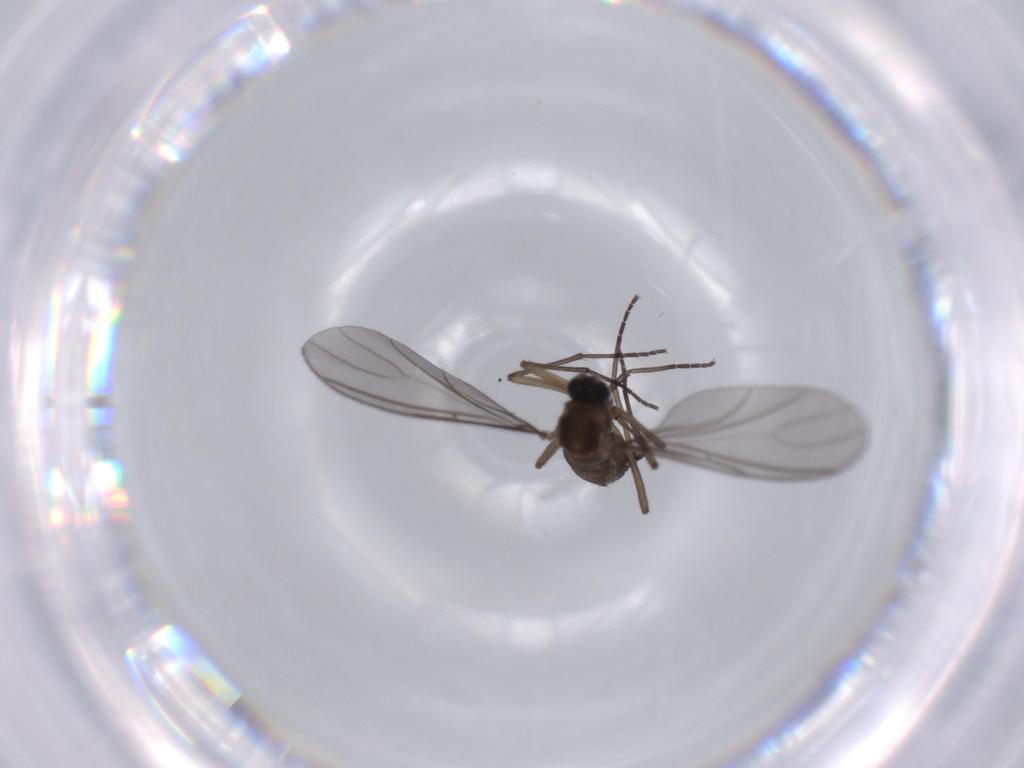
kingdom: Animalia
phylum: Arthropoda
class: Insecta
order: Diptera
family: Sciaridae
